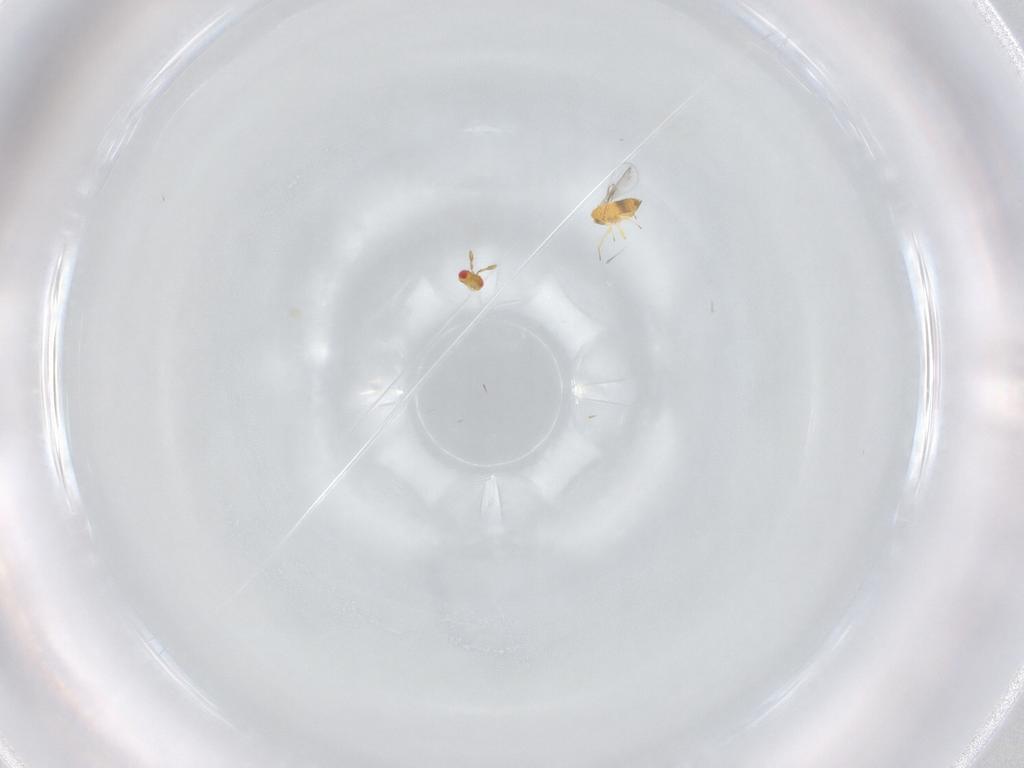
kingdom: Animalia
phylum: Arthropoda
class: Insecta
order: Hymenoptera
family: Trichogrammatidae
